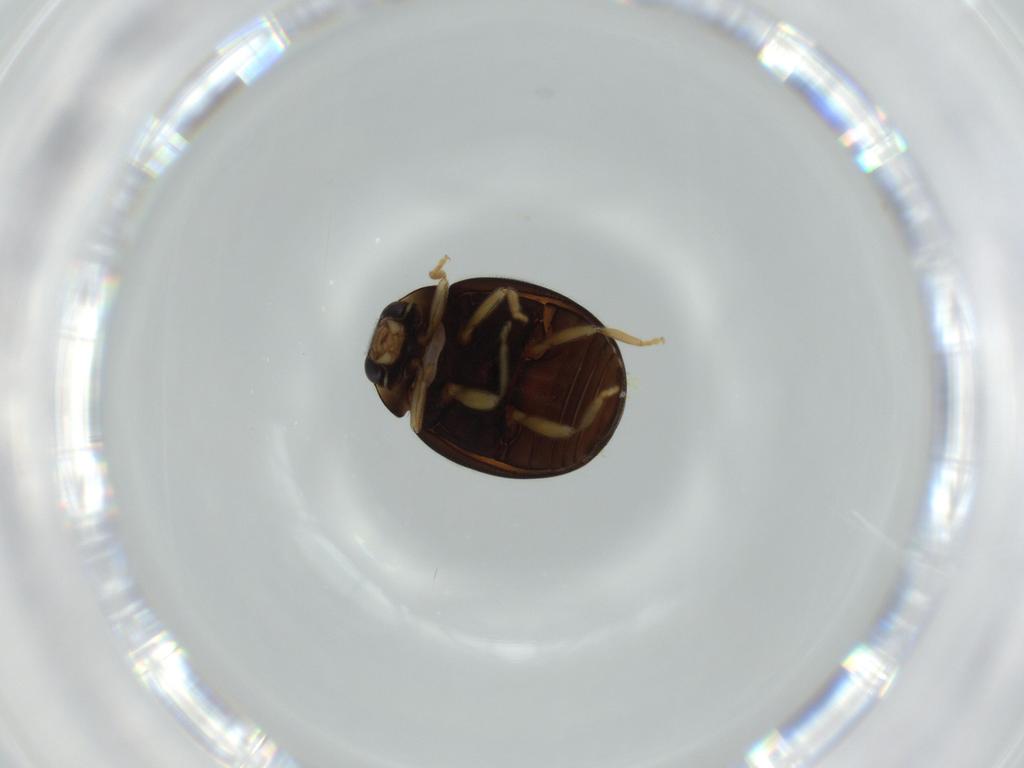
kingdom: Animalia
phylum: Arthropoda
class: Insecta
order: Coleoptera
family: Coccinellidae
